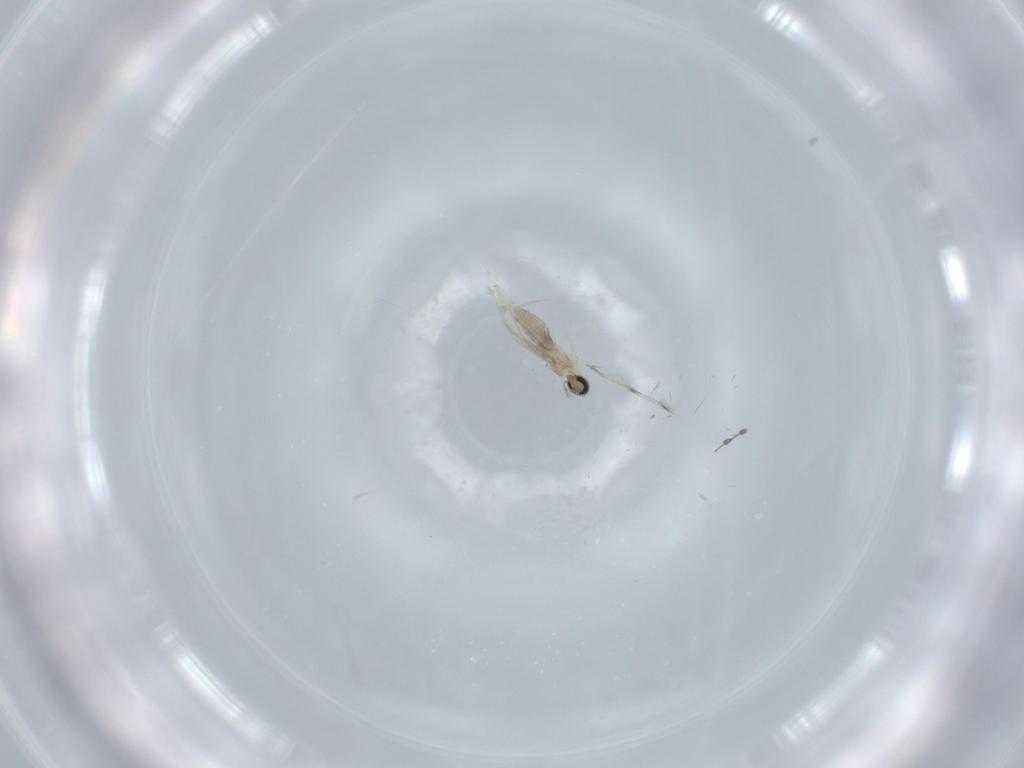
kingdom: Animalia
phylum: Arthropoda
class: Insecta
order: Diptera
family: Cecidomyiidae
